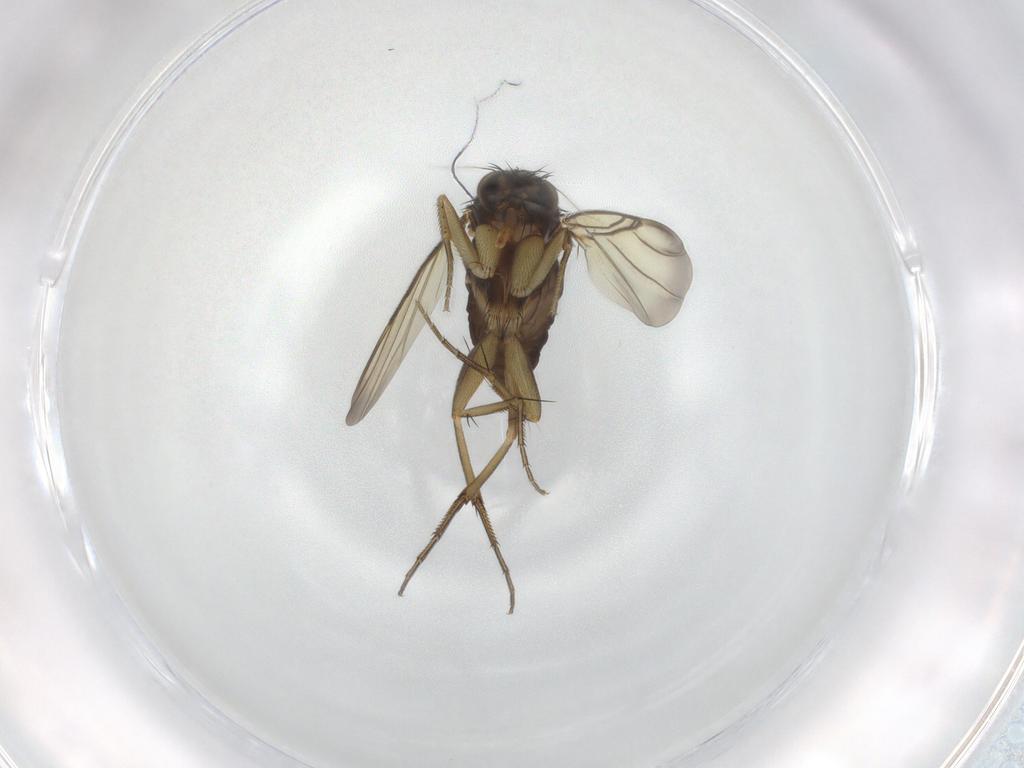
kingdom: Animalia
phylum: Arthropoda
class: Insecta
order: Diptera
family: Phoridae
